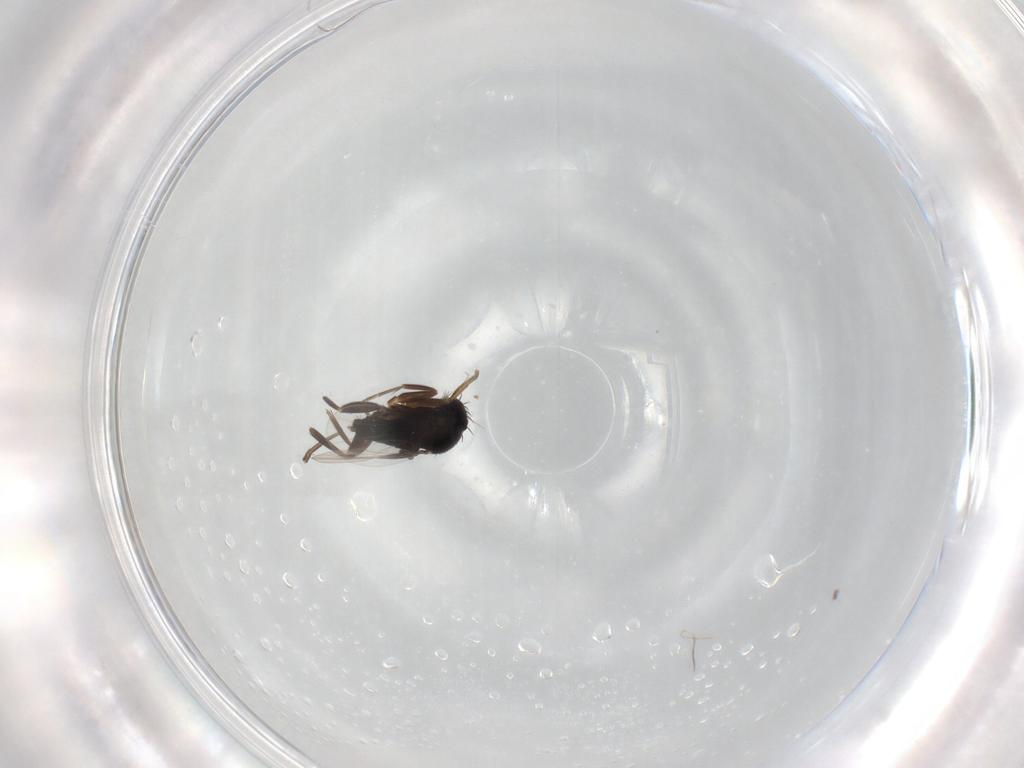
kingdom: Animalia
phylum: Arthropoda
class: Insecta
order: Diptera
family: Phoridae
